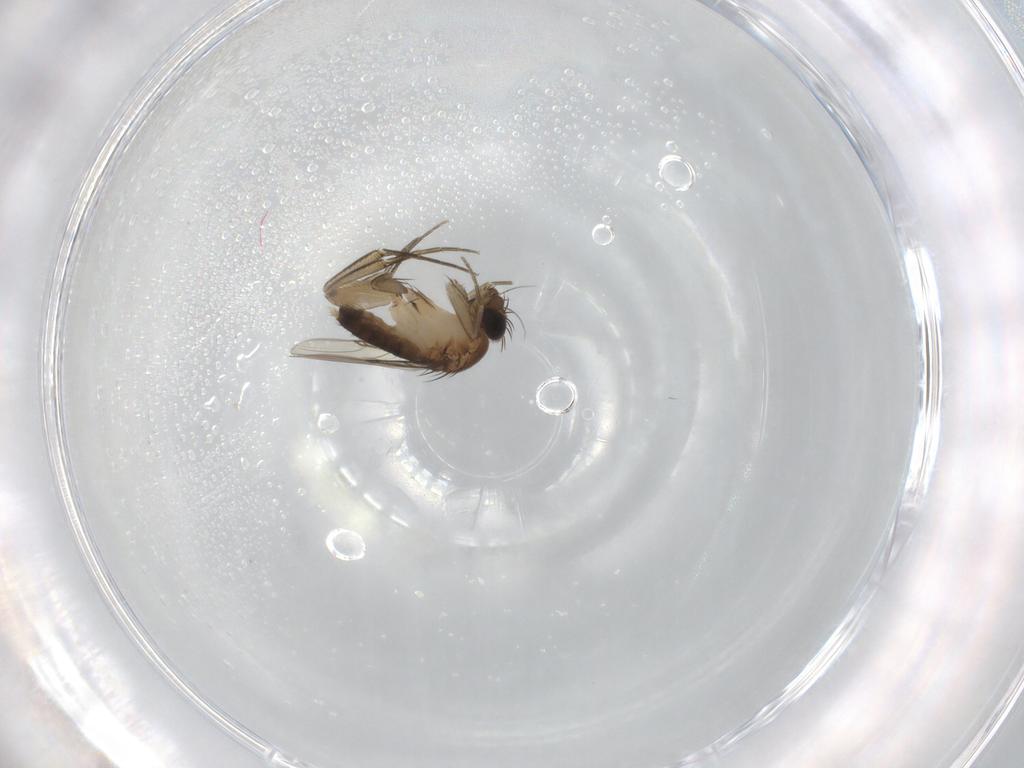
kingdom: Animalia
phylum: Arthropoda
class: Insecta
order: Diptera
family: Phoridae
